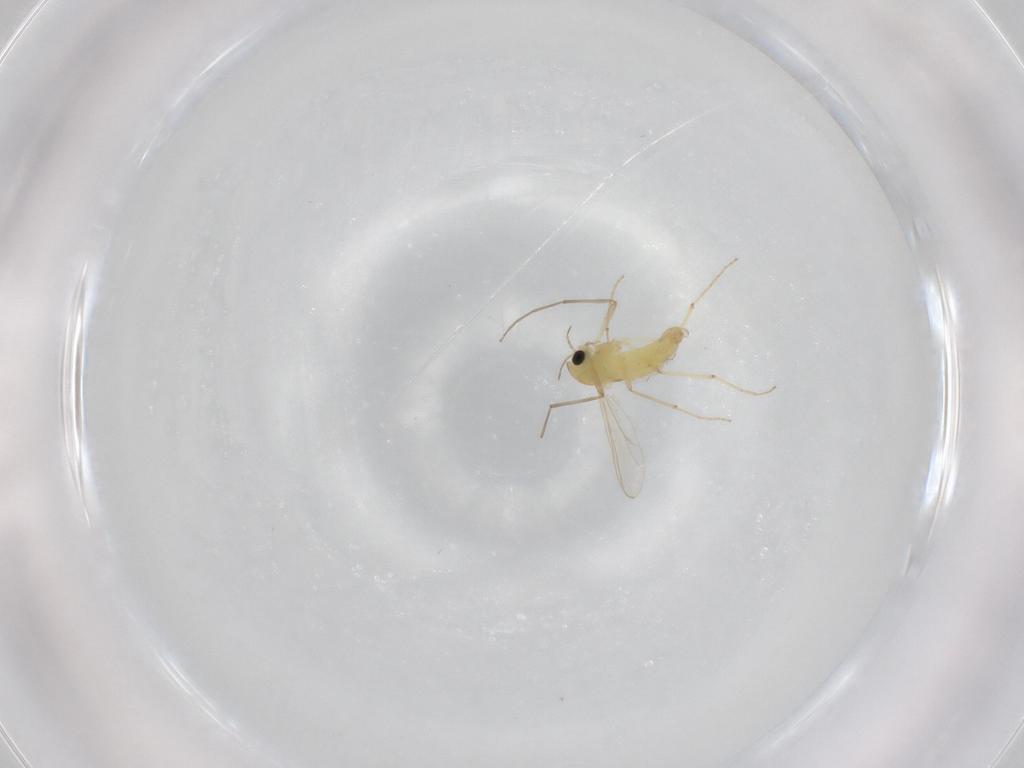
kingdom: Animalia
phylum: Arthropoda
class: Insecta
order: Diptera
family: Chironomidae
